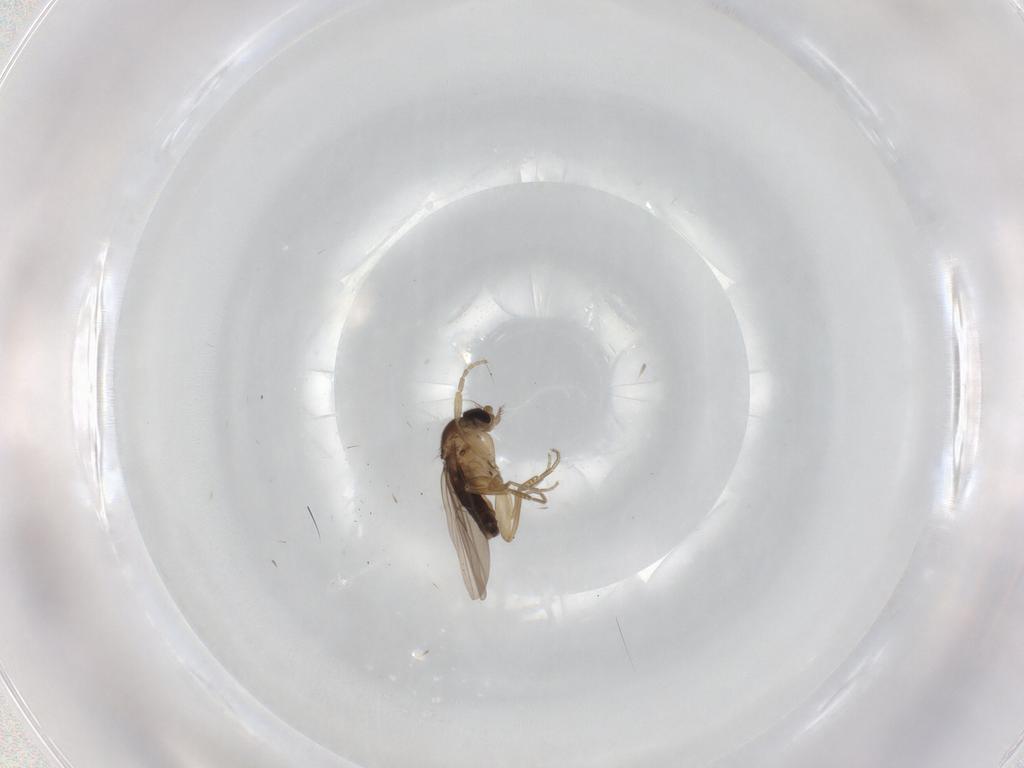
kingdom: Animalia
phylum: Arthropoda
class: Insecta
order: Diptera
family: Phoridae
